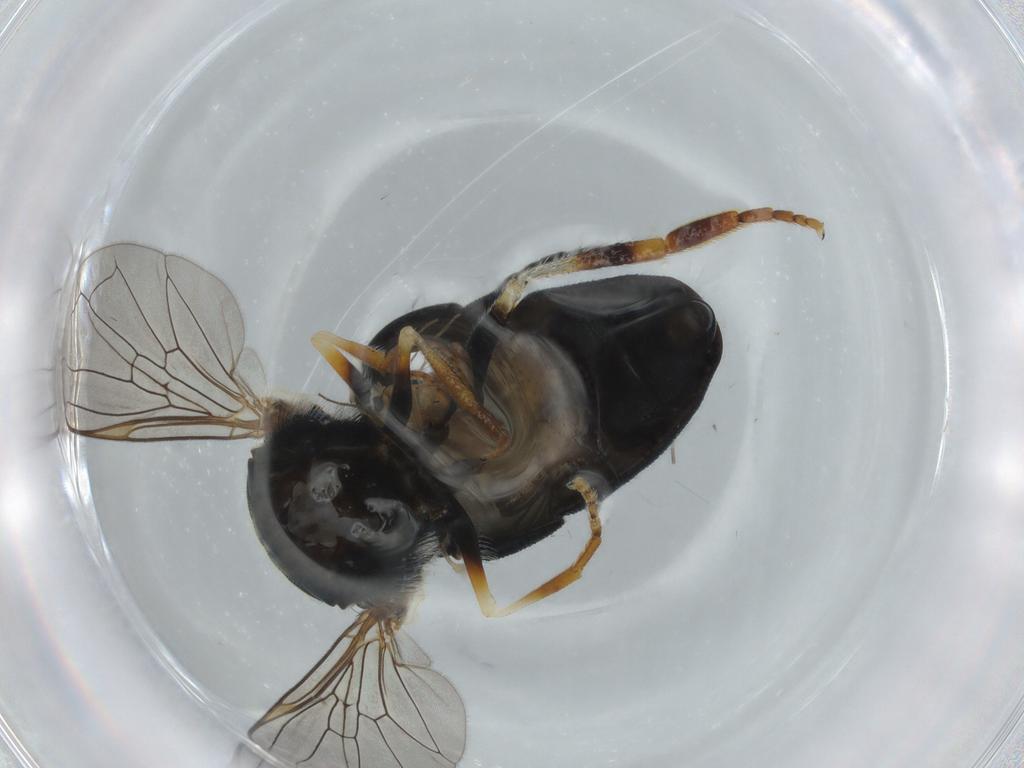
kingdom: Animalia
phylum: Arthropoda
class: Insecta
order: Diptera
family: Syrphidae
